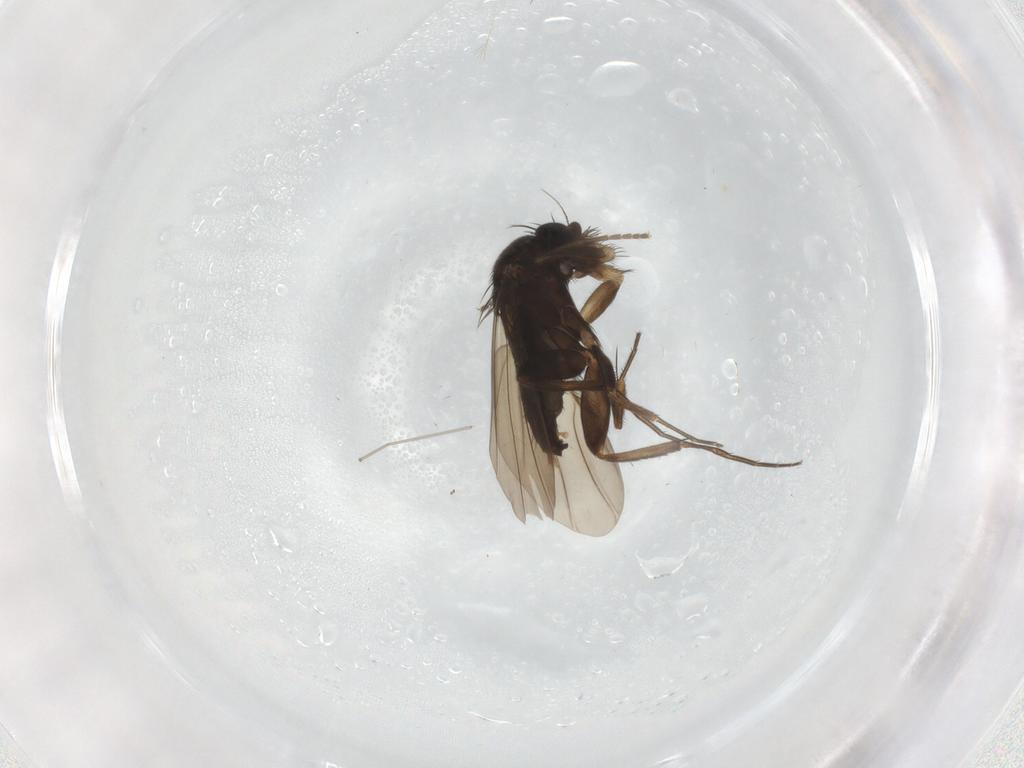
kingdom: Animalia
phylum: Arthropoda
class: Insecta
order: Diptera
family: Phoridae
